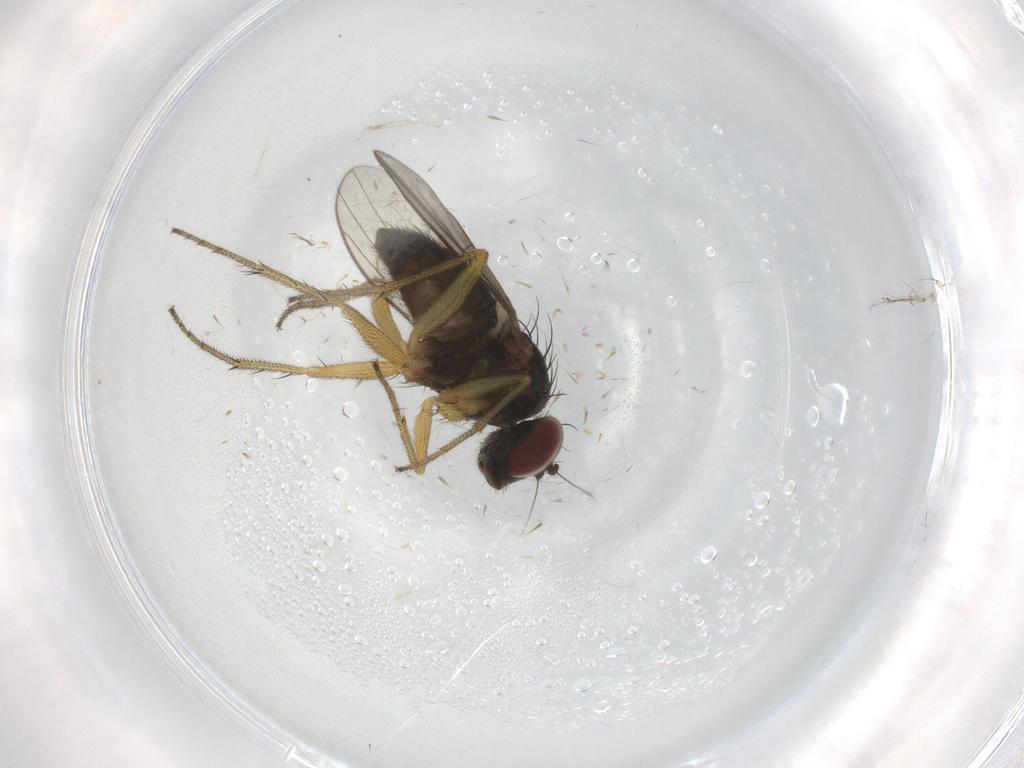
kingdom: Animalia
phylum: Arthropoda
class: Insecta
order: Diptera
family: Dolichopodidae
